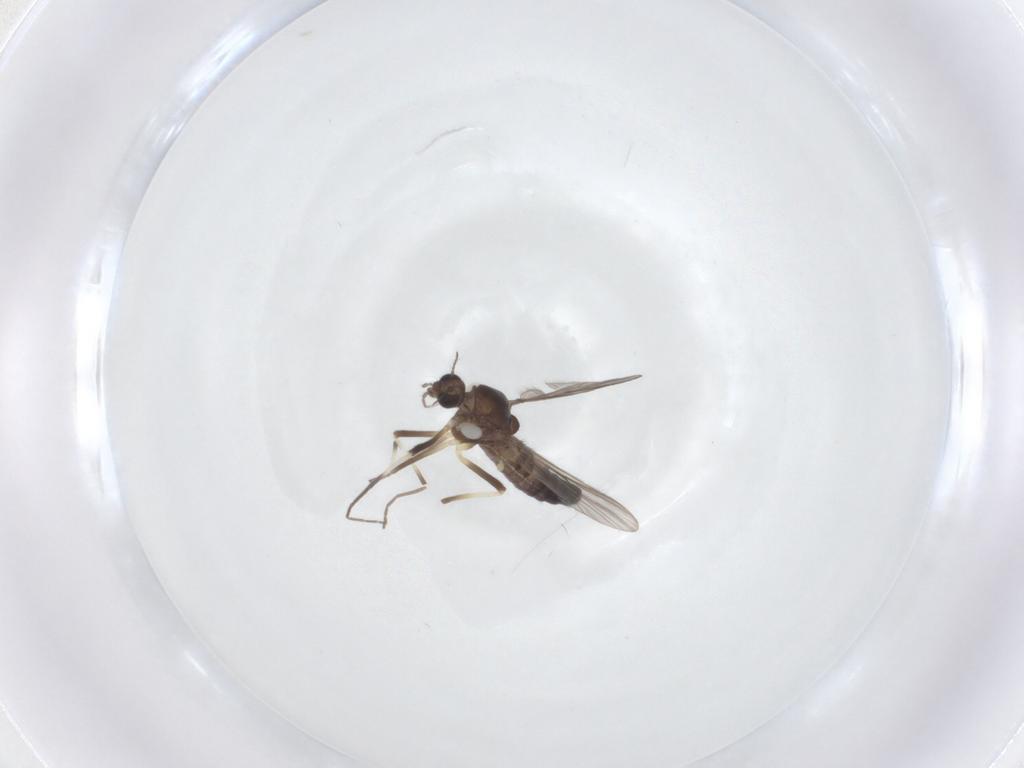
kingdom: Animalia
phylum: Arthropoda
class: Insecta
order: Diptera
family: Chironomidae
